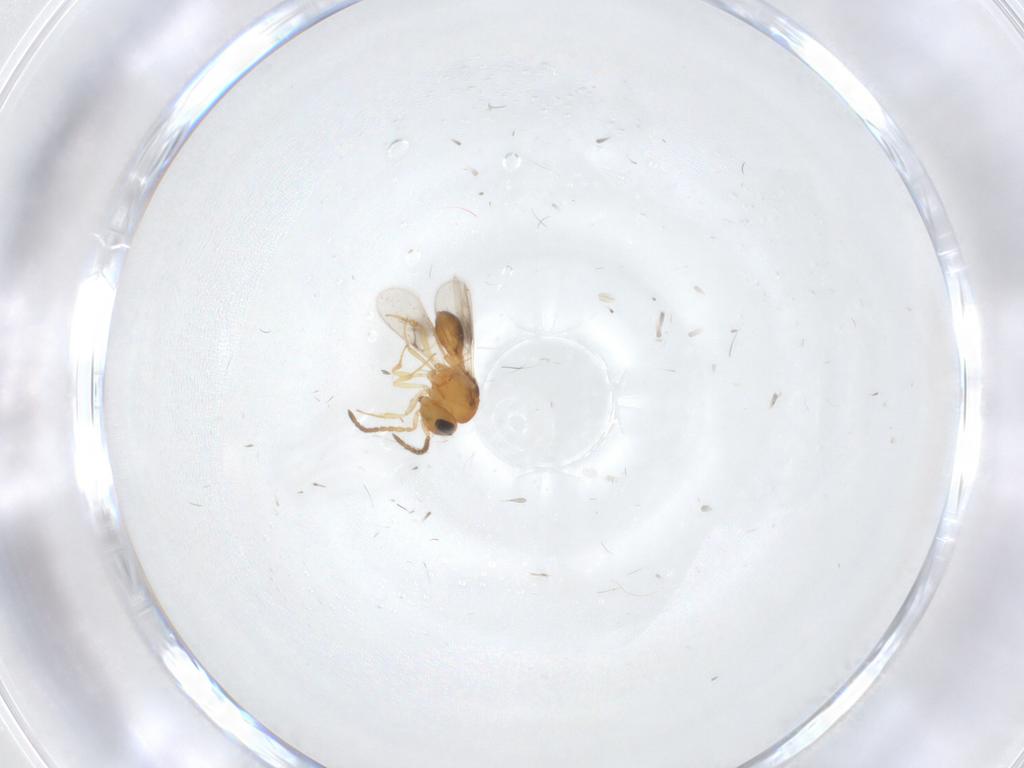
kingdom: Animalia
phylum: Arthropoda
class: Insecta
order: Hymenoptera
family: Scelionidae
